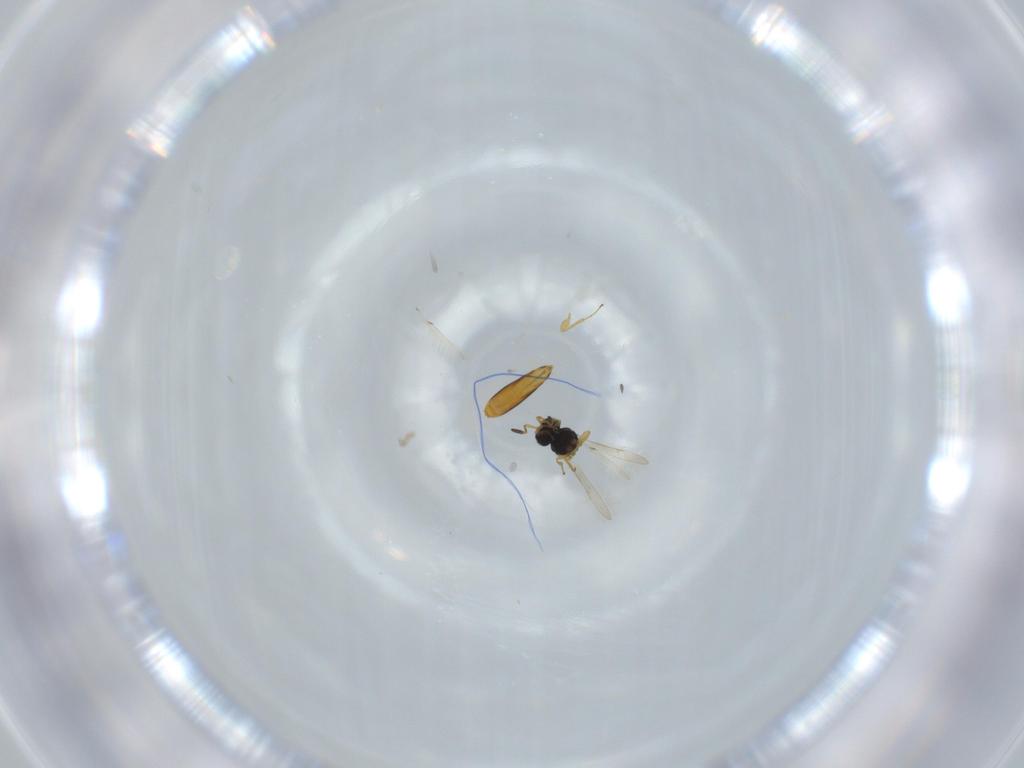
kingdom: Animalia
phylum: Arthropoda
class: Insecta
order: Hymenoptera
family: Scelionidae
